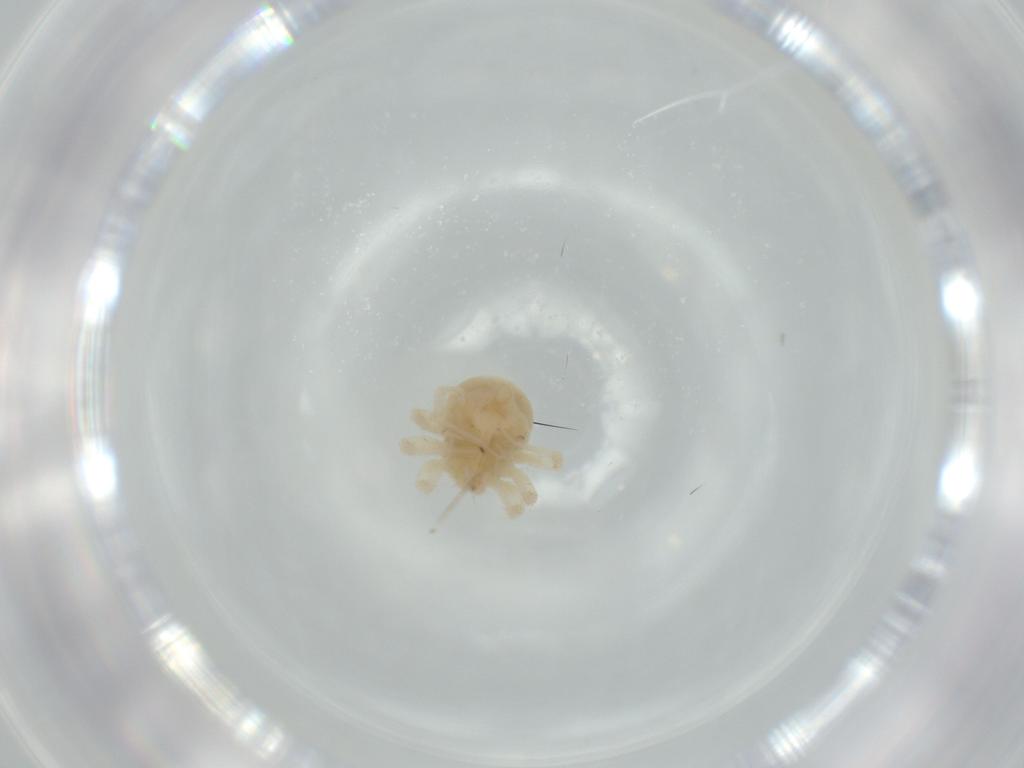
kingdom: Animalia
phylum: Arthropoda
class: Arachnida
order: Trombidiformes
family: Anystidae
